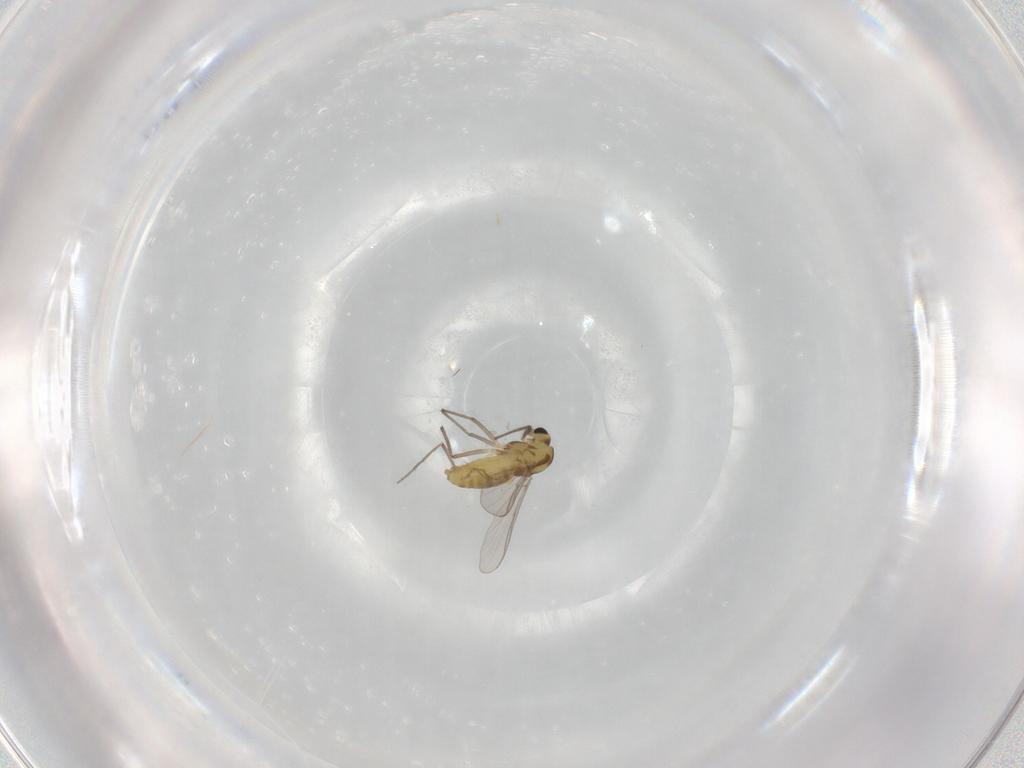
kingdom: Animalia
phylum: Arthropoda
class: Insecta
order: Diptera
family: Chironomidae
